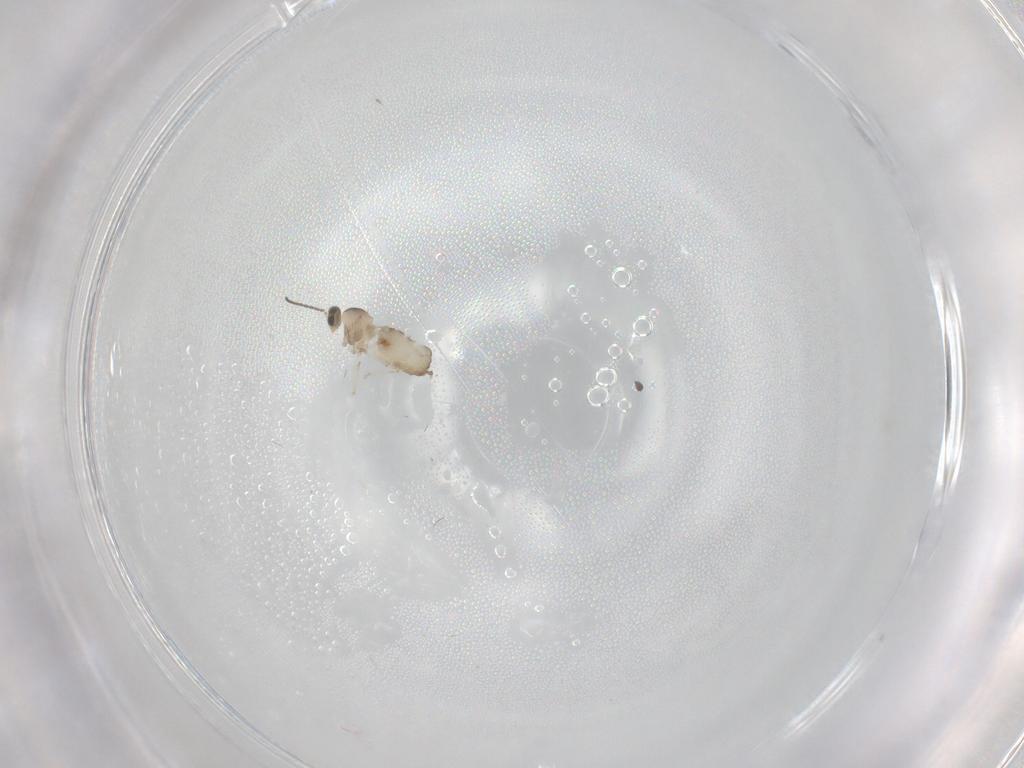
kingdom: Animalia
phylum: Arthropoda
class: Insecta
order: Diptera
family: Cecidomyiidae
